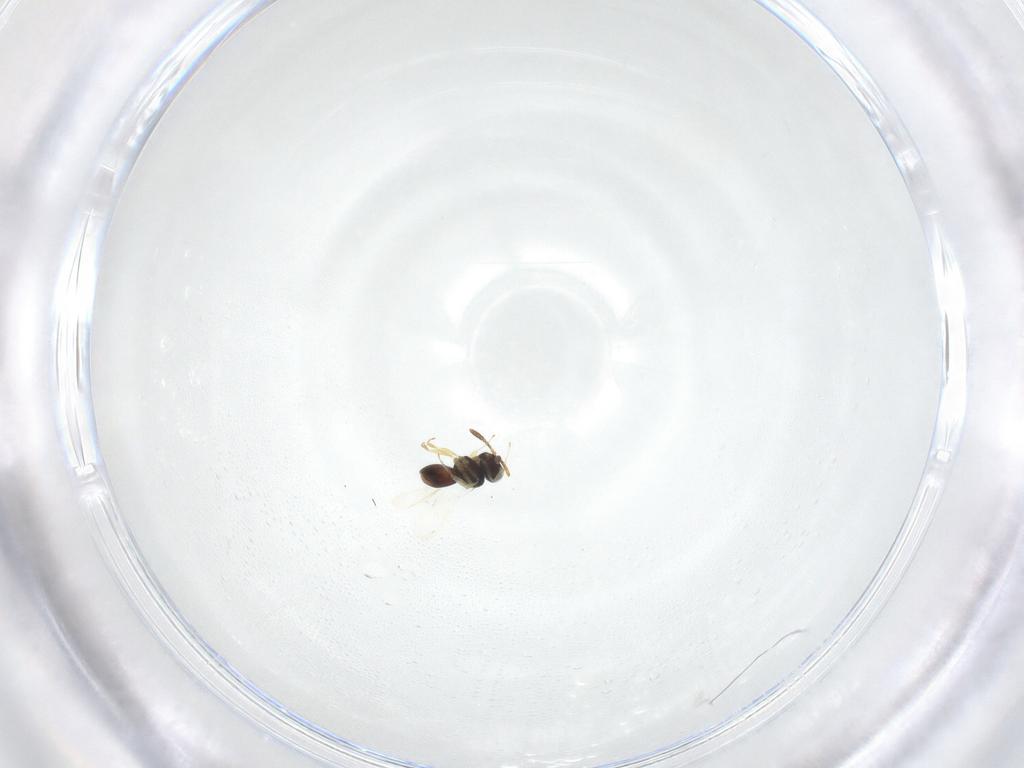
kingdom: Animalia
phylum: Arthropoda
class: Insecta
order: Hymenoptera
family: Scelionidae
